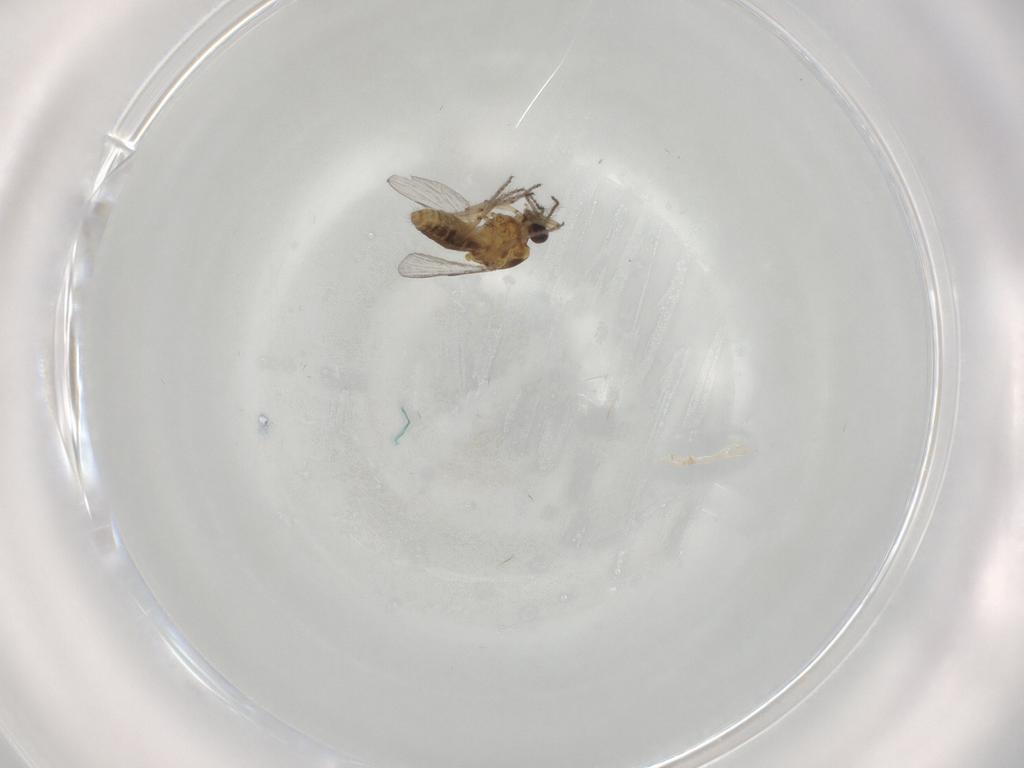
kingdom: Animalia
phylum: Arthropoda
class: Insecta
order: Diptera
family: Ceratopogonidae
